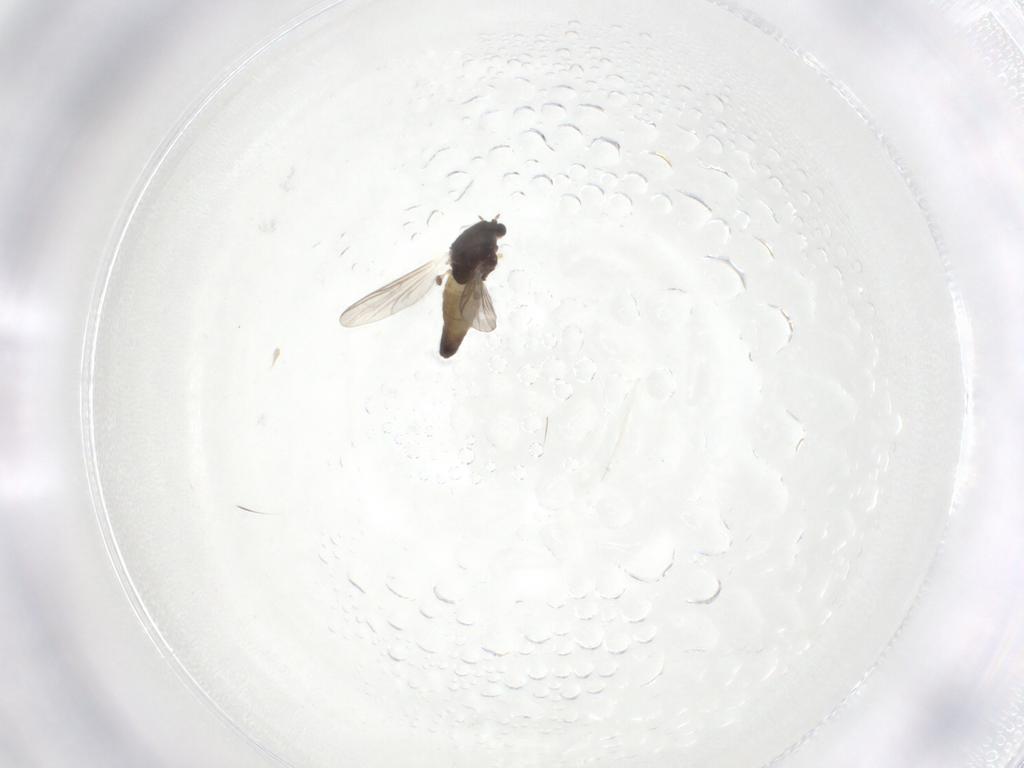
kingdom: Animalia
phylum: Arthropoda
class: Insecta
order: Diptera
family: Chironomidae
